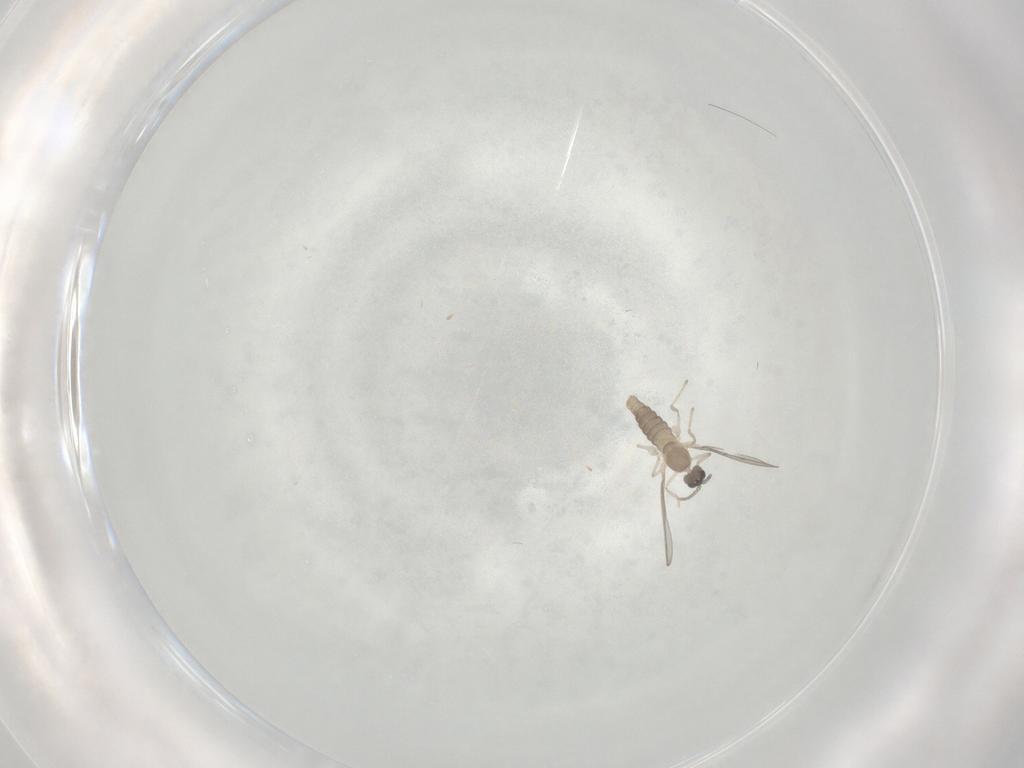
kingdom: Animalia
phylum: Arthropoda
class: Insecta
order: Diptera
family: Cecidomyiidae
